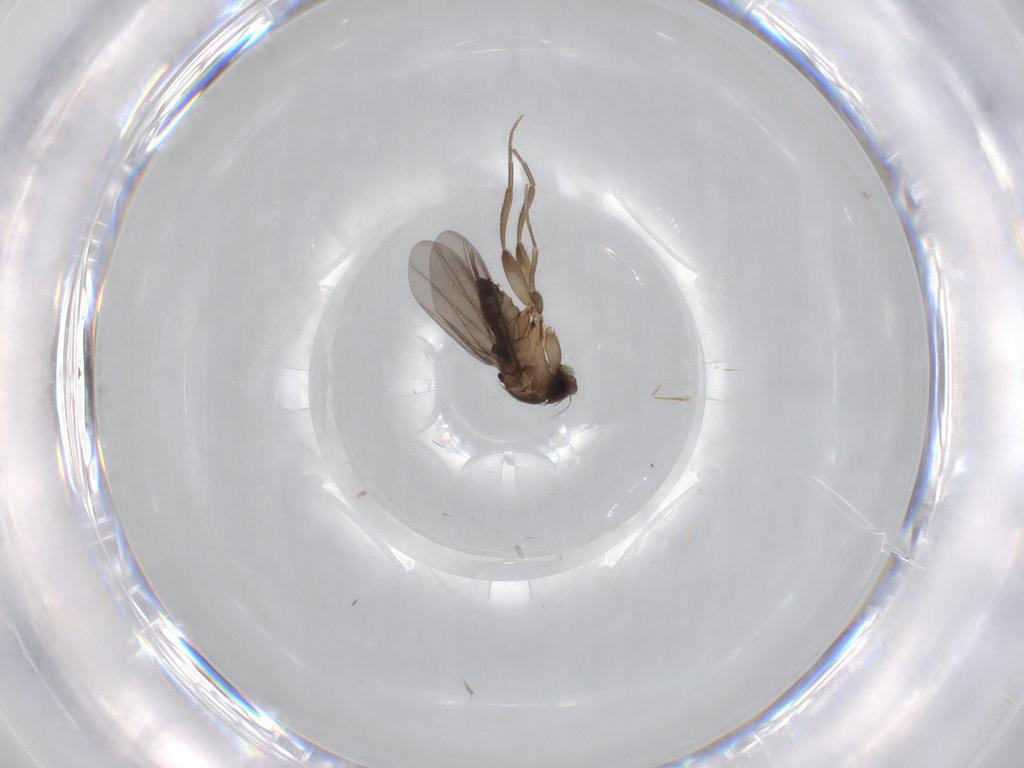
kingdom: Animalia
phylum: Arthropoda
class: Insecta
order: Diptera
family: Phoridae
